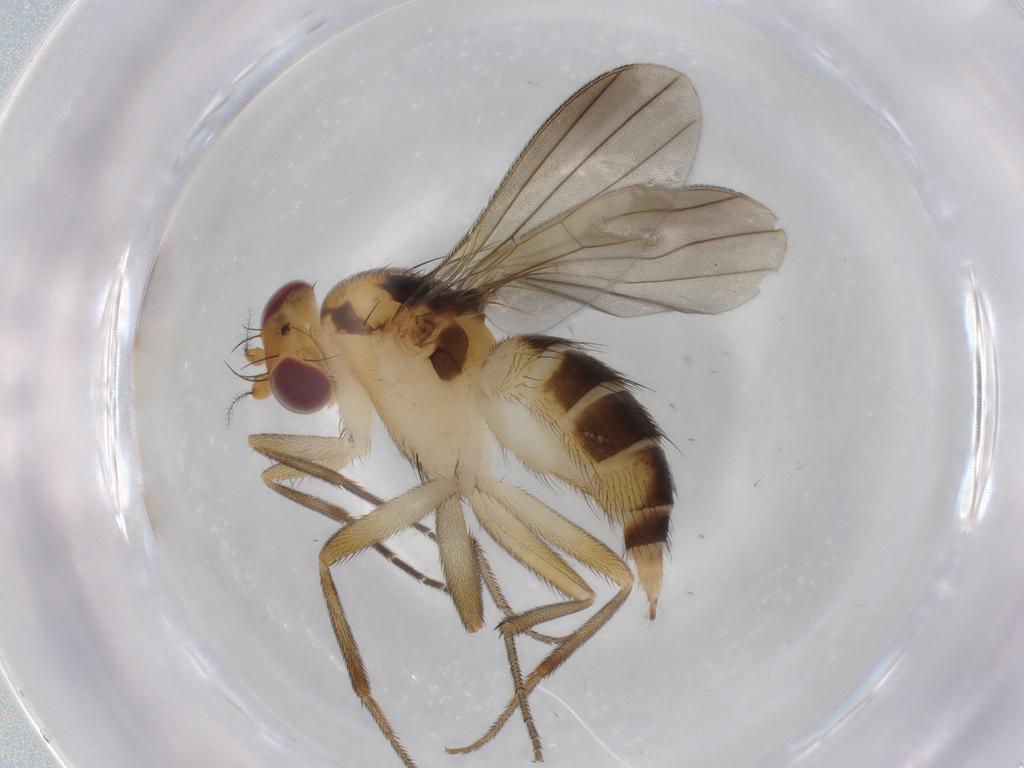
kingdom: Animalia
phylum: Arthropoda
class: Insecta
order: Diptera
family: Clusiidae
